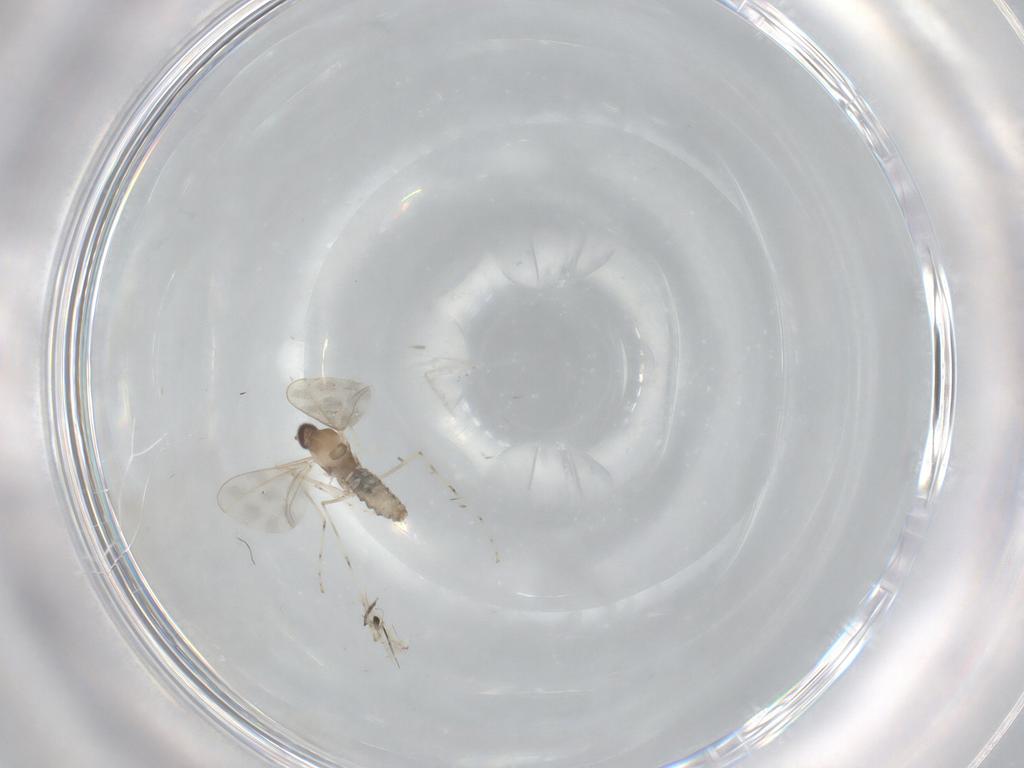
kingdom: Animalia
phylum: Arthropoda
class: Insecta
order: Diptera
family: Cecidomyiidae
